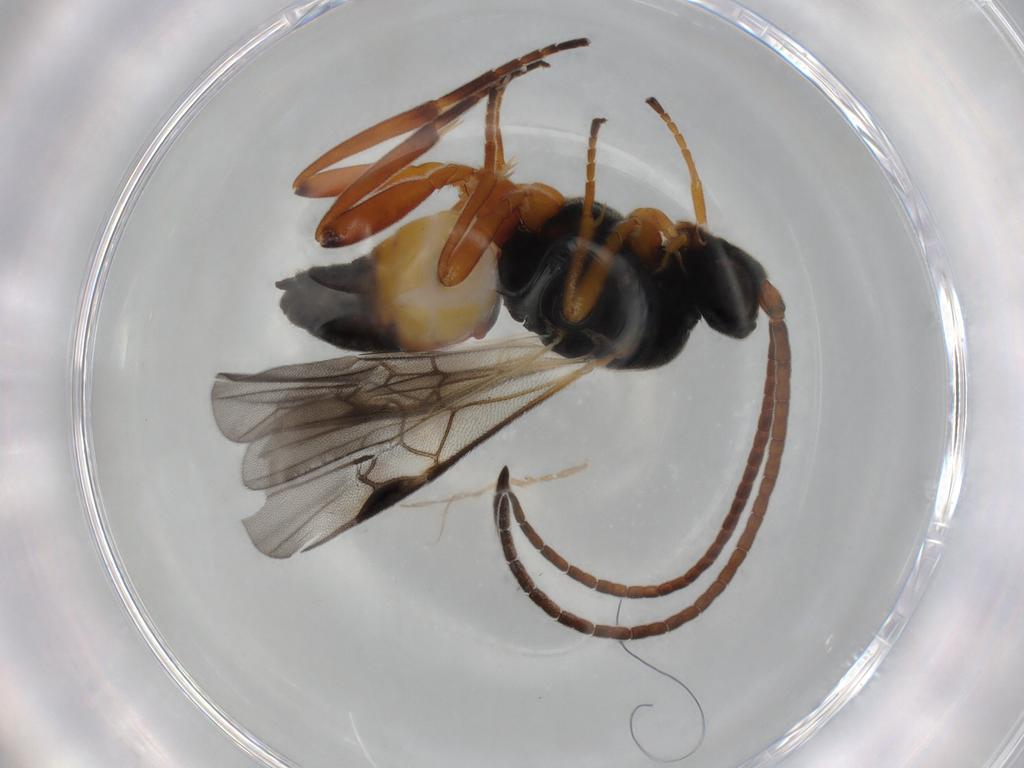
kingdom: Animalia
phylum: Arthropoda
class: Insecta
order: Hymenoptera
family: Braconidae
